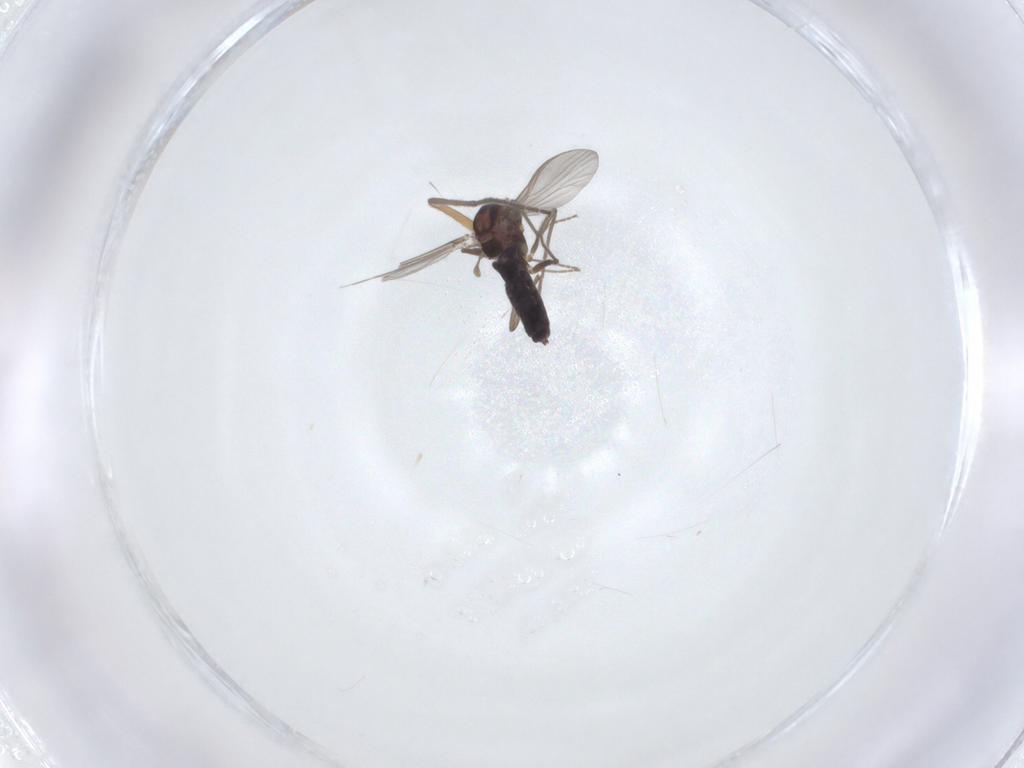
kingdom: Animalia
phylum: Arthropoda
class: Insecta
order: Diptera
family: Chironomidae
